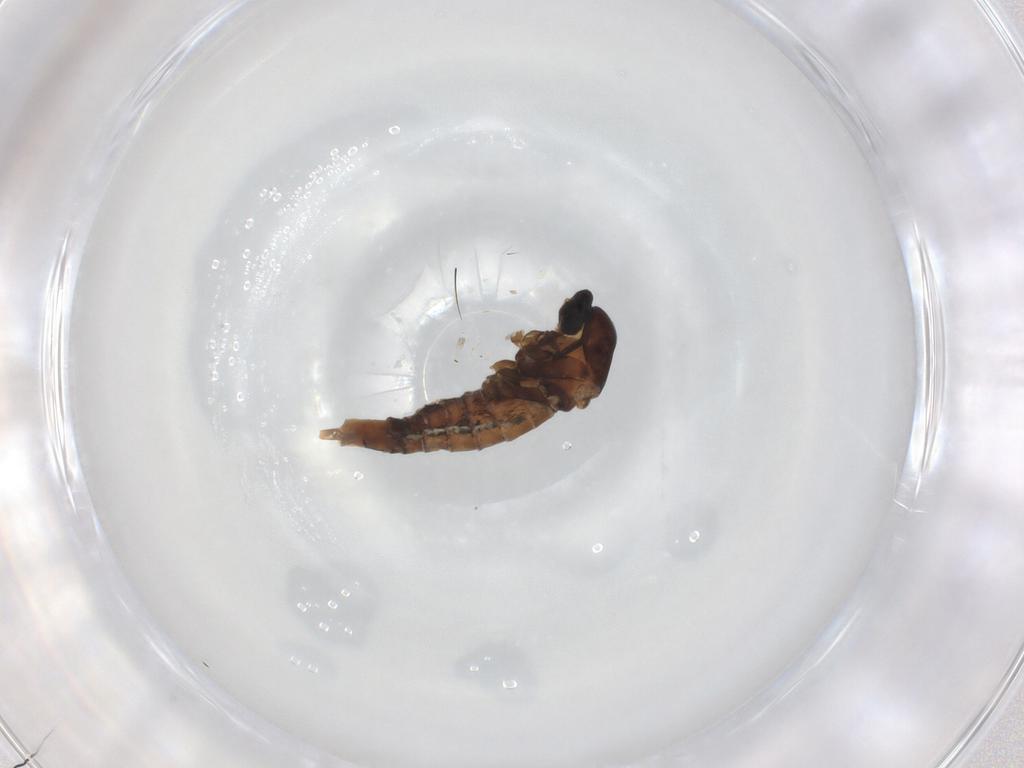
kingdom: Animalia
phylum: Arthropoda
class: Insecta
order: Diptera
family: Cecidomyiidae
